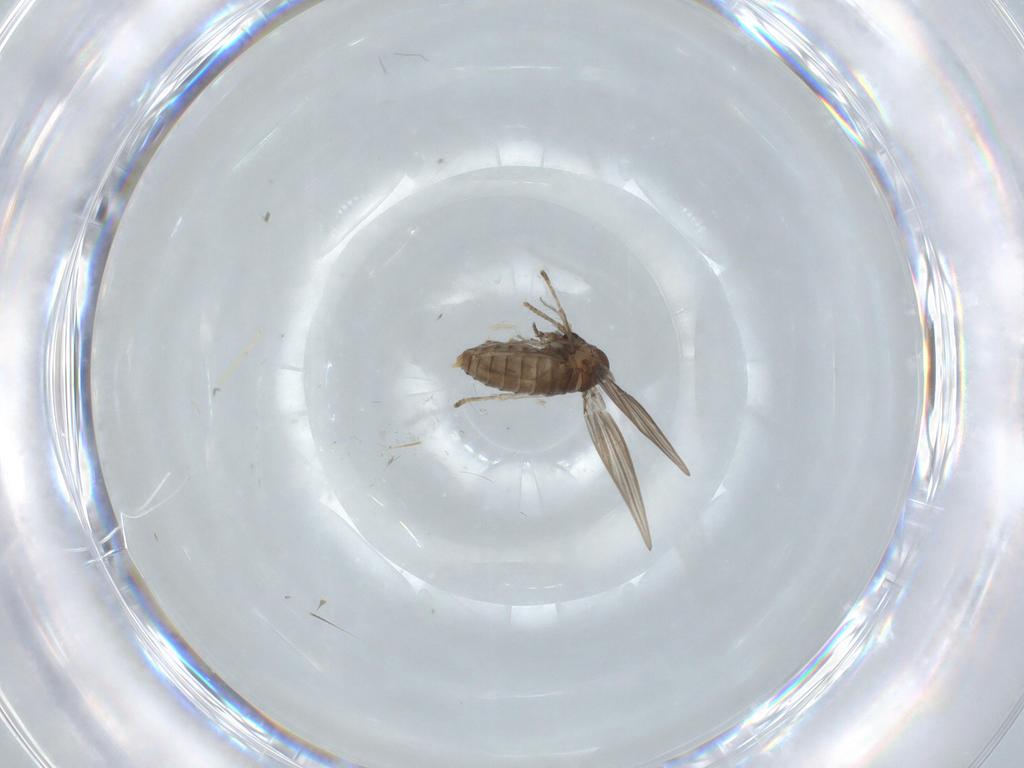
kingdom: Animalia
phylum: Arthropoda
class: Insecta
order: Diptera
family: Psychodidae
